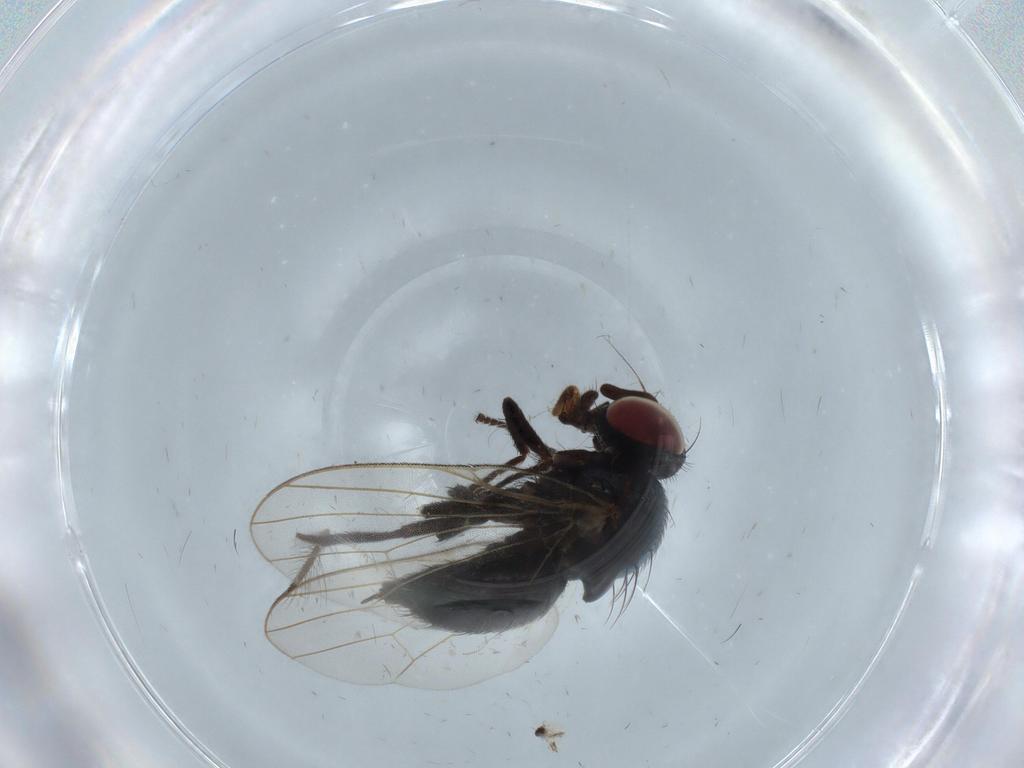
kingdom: Animalia
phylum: Arthropoda
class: Insecta
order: Diptera
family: Ceratopogonidae
